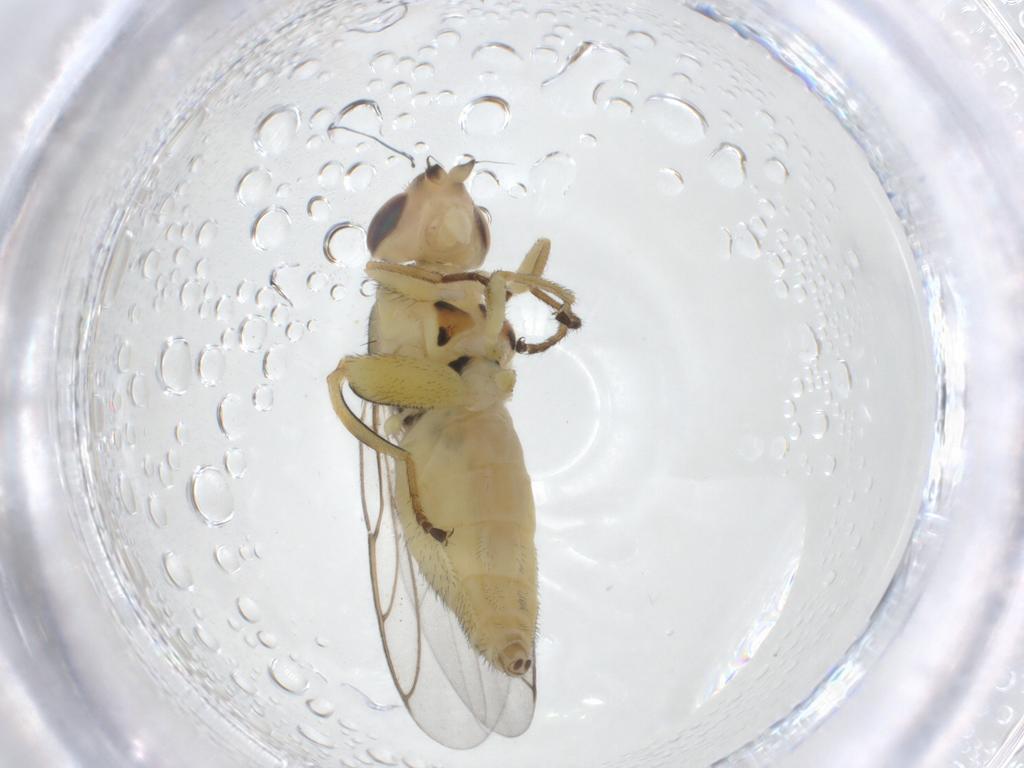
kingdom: Animalia
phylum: Arthropoda
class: Insecta
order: Diptera
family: Chloropidae
